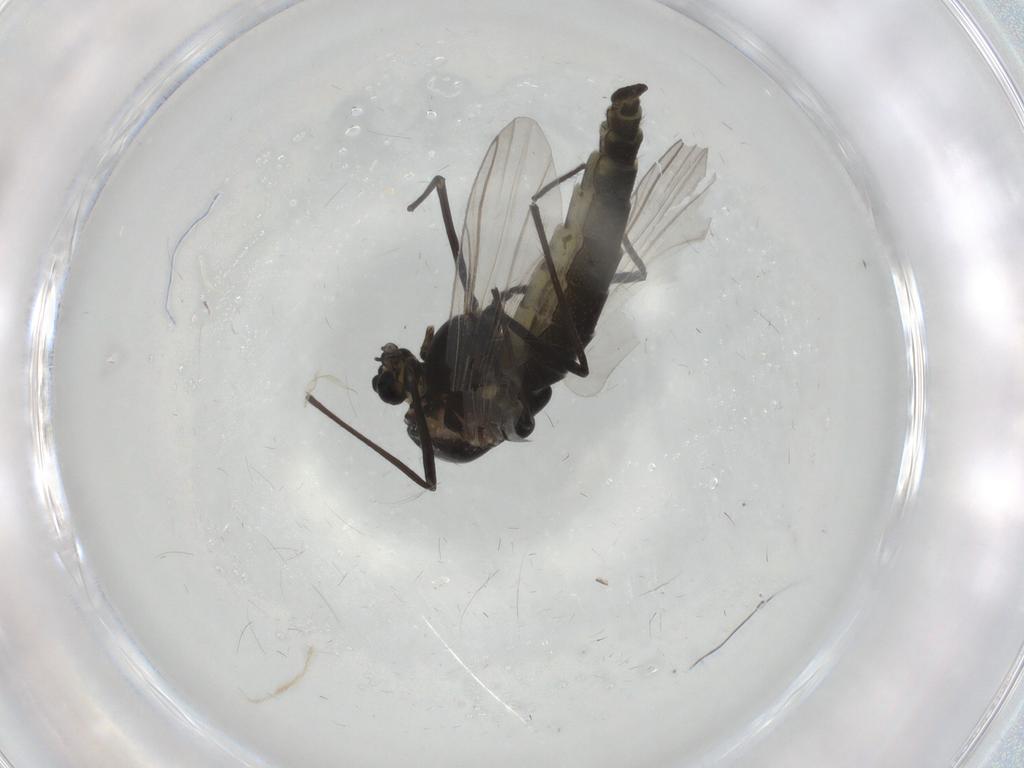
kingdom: Animalia
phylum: Arthropoda
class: Insecta
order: Diptera
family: Chironomidae
